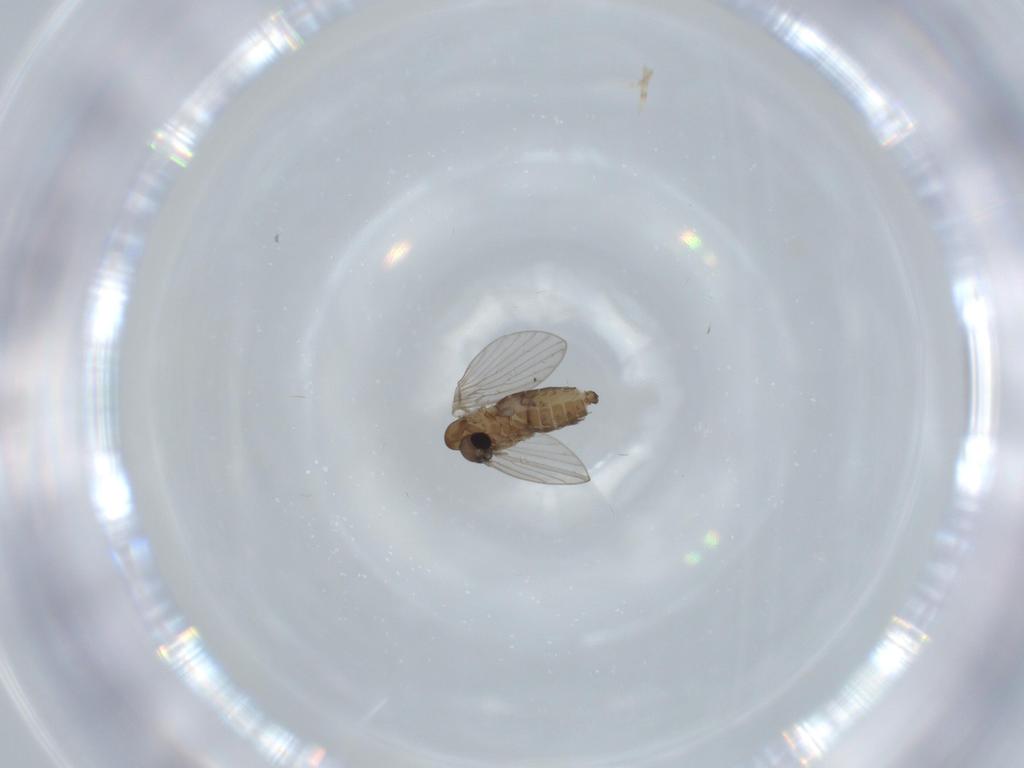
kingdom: Animalia
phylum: Arthropoda
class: Insecta
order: Diptera
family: Psychodidae
